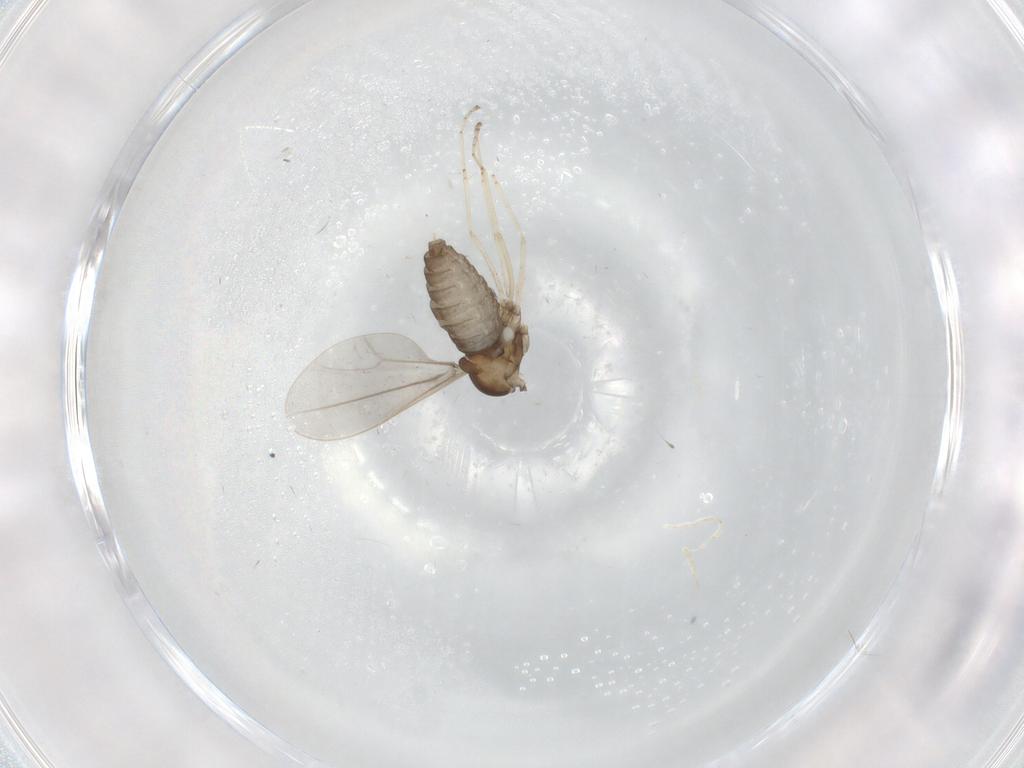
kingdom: Animalia
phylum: Arthropoda
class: Insecta
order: Diptera
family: Cecidomyiidae
